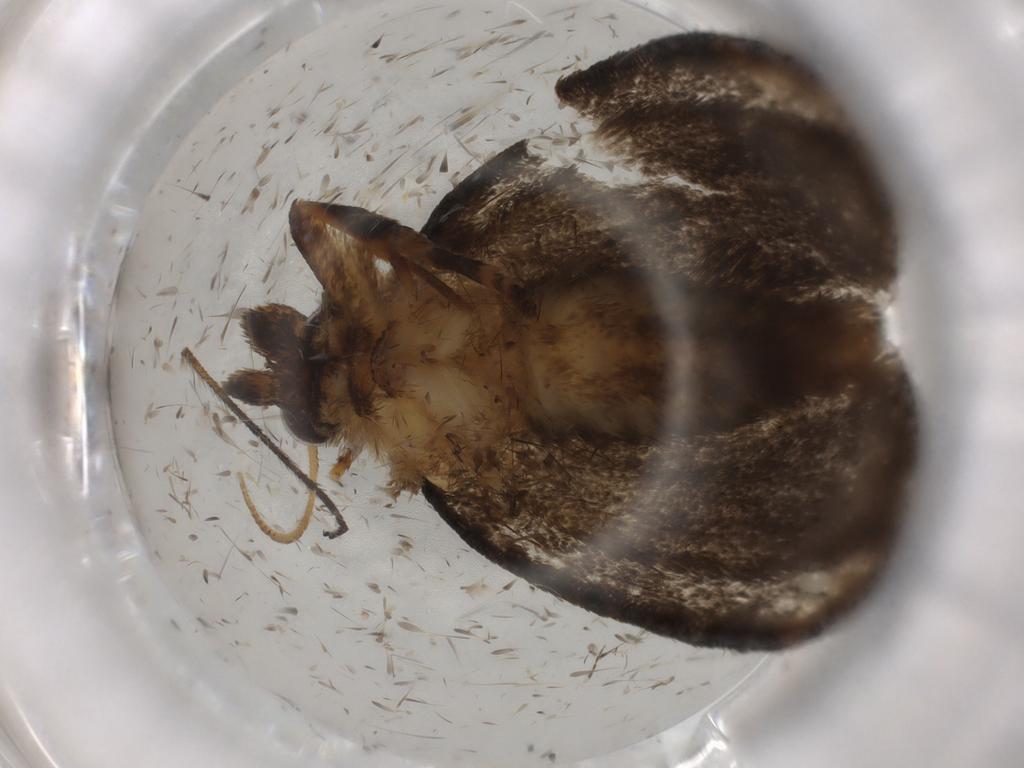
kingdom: Animalia
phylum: Arthropoda
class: Insecta
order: Lepidoptera
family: Tineidae
